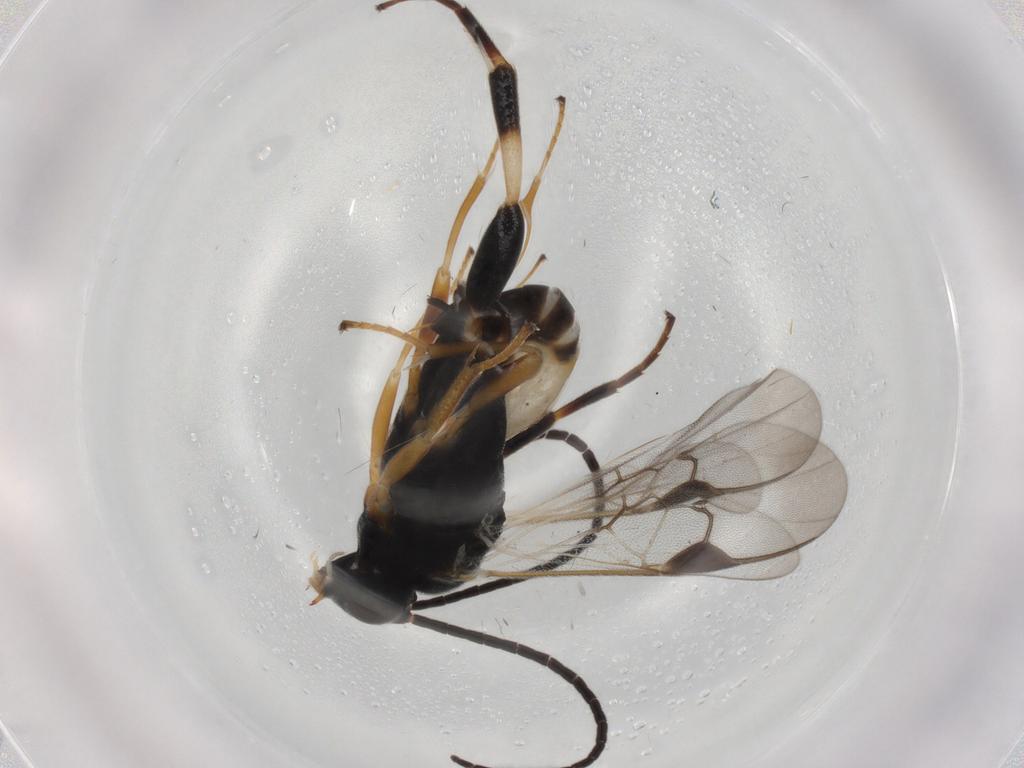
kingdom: Animalia
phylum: Arthropoda
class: Insecta
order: Hymenoptera
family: Braconidae
